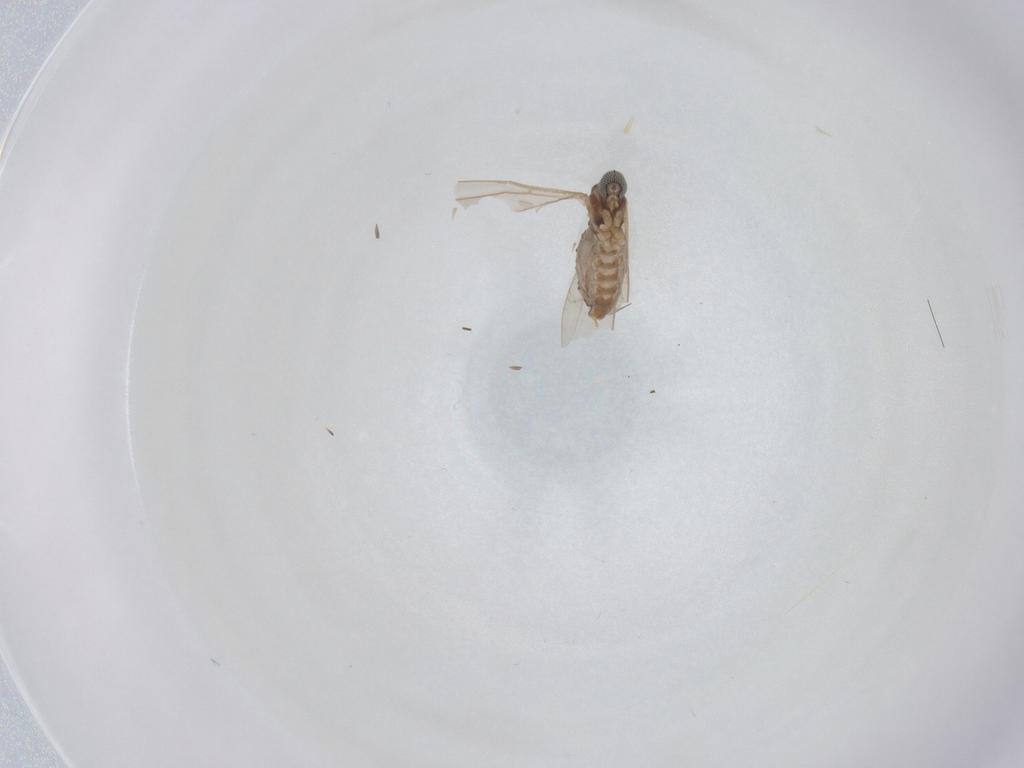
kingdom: Animalia
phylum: Arthropoda
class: Insecta
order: Diptera
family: Cecidomyiidae
